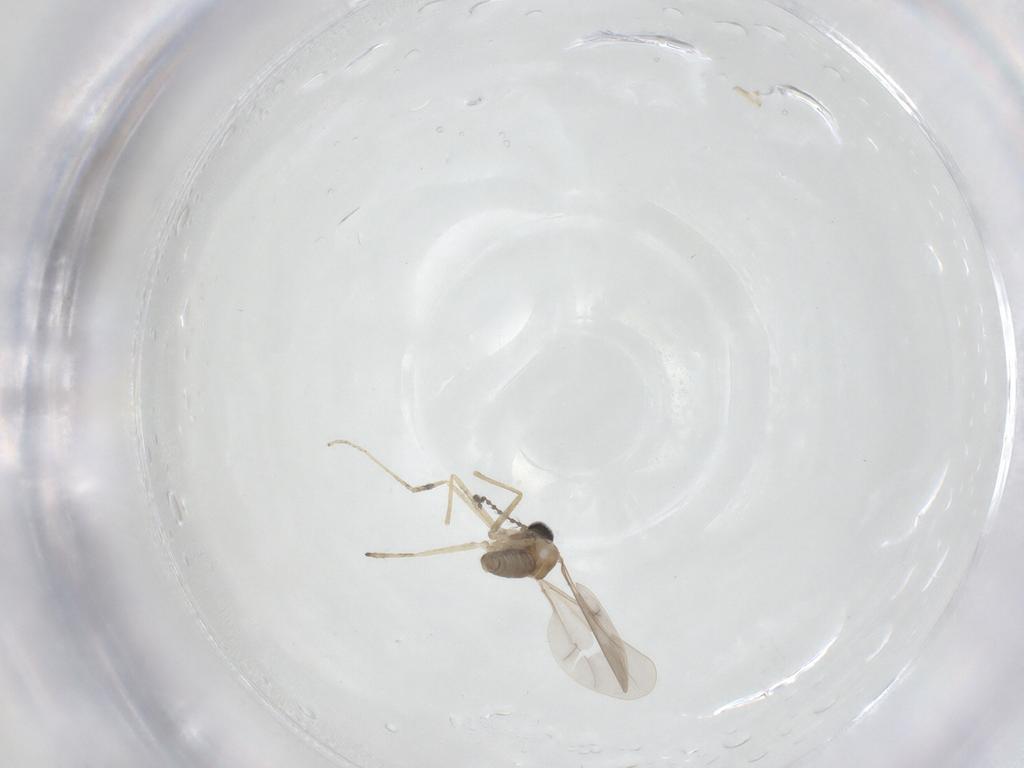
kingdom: Animalia
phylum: Arthropoda
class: Insecta
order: Diptera
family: Cecidomyiidae
